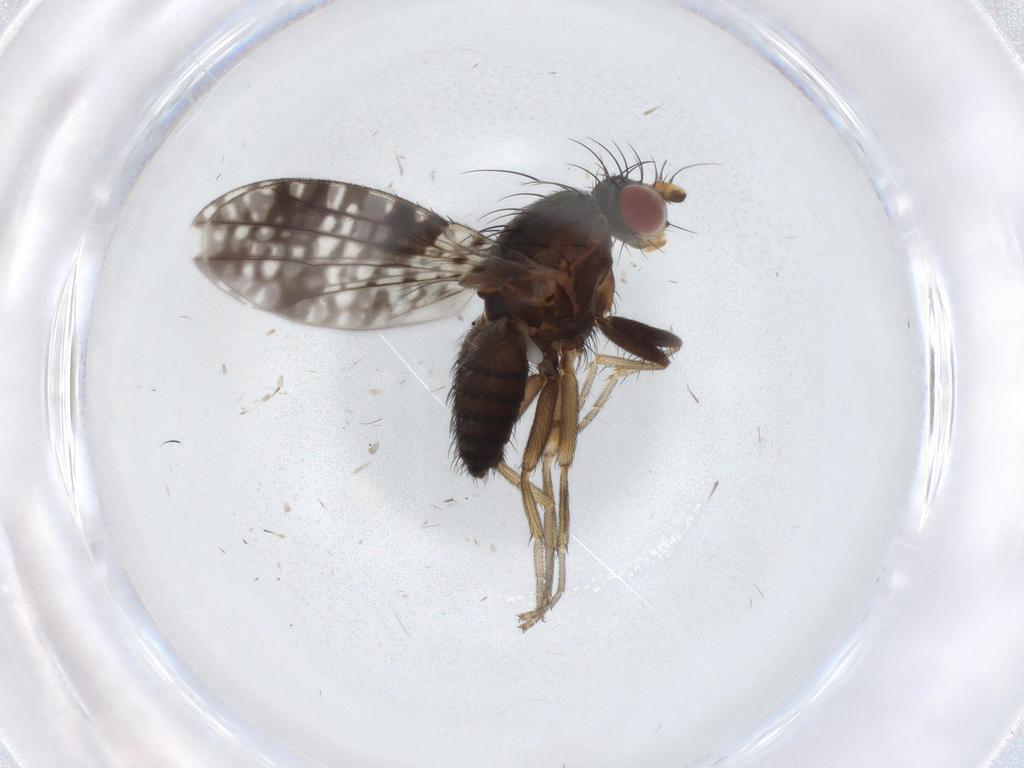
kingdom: Animalia
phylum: Arthropoda
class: Insecta
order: Diptera
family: Tephritidae
